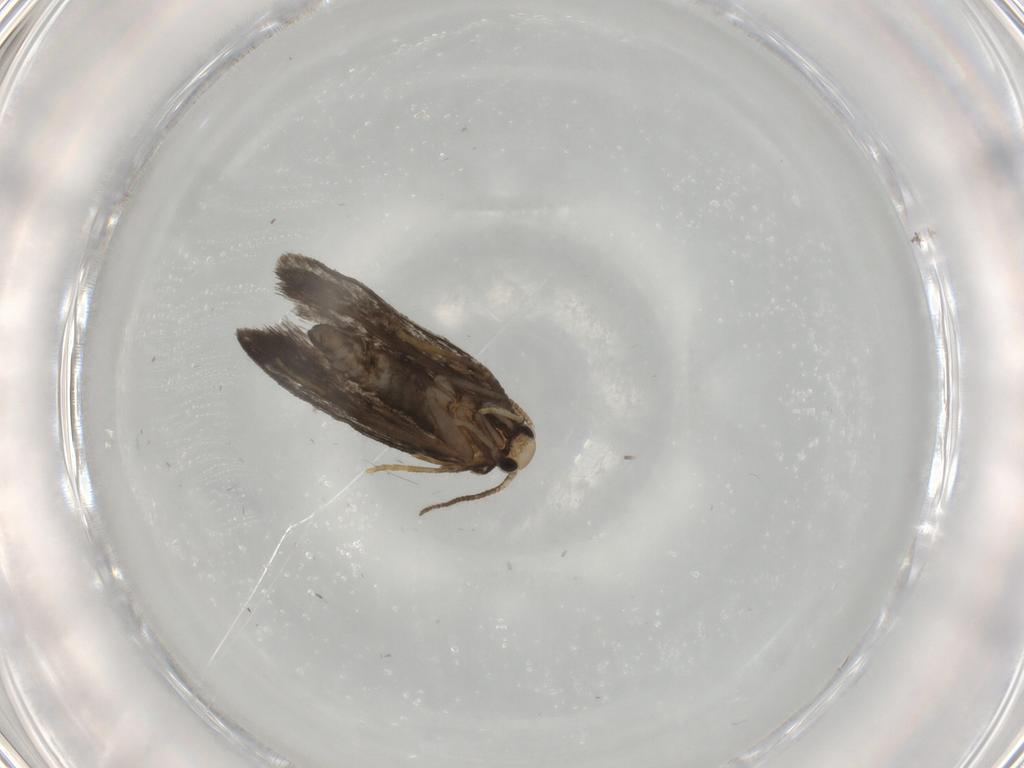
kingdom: Animalia
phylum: Arthropoda
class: Insecta
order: Lepidoptera
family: Psychidae
